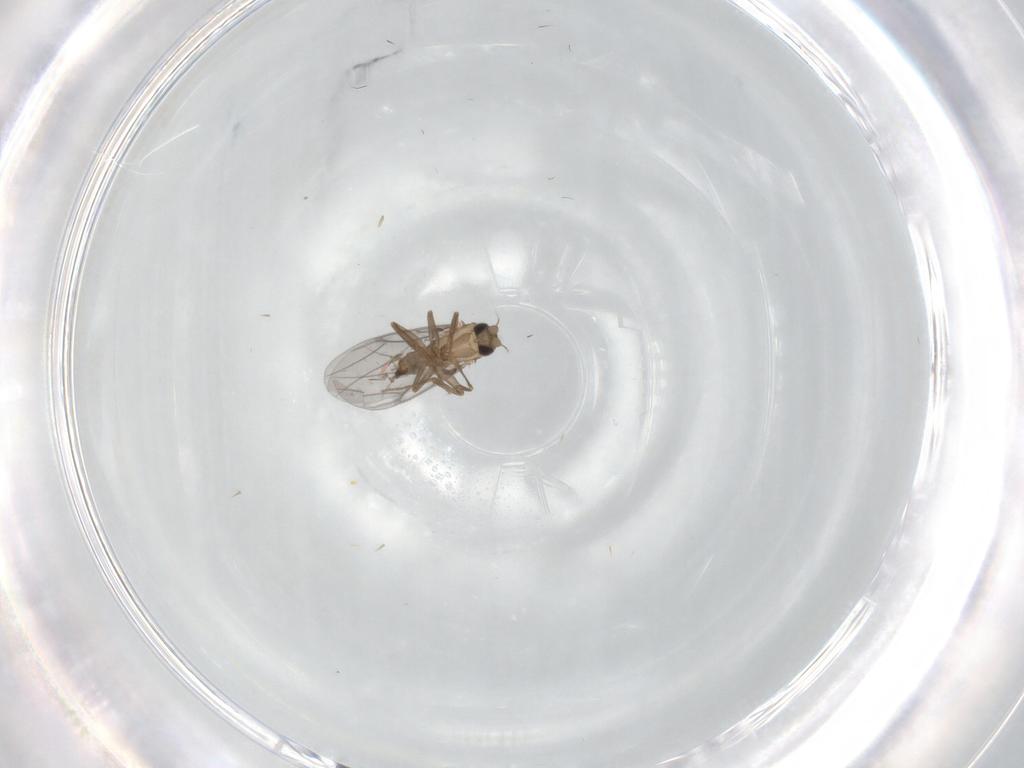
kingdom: Animalia
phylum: Arthropoda
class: Insecta
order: Diptera
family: Phoridae
